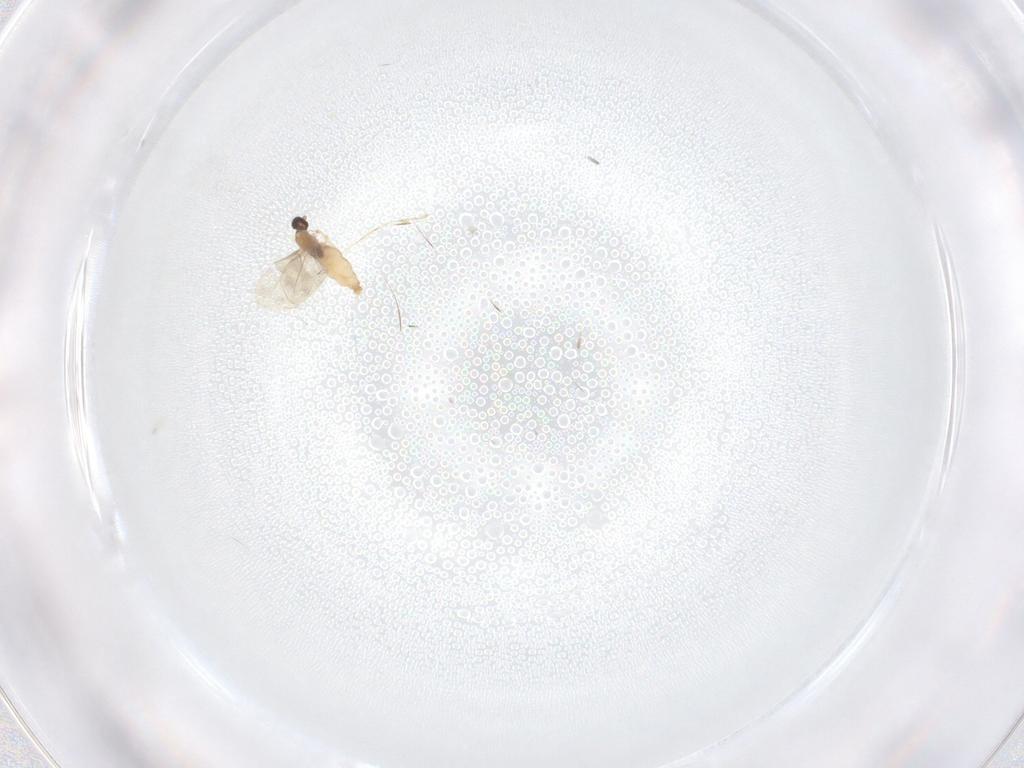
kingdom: Animalia
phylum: Arthropoda
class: Insecta
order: Diptera
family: Cecidomyiidae
